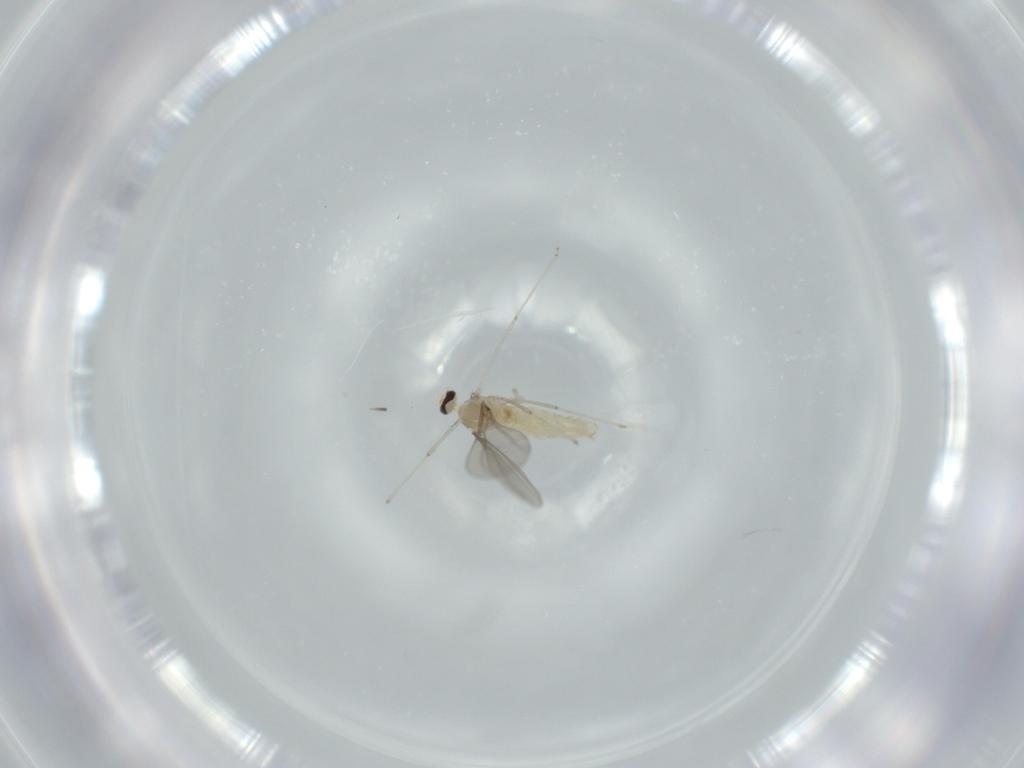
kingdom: Animalia
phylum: Arthropoda
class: Insecta
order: Diptera
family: Cecidomyiidae
